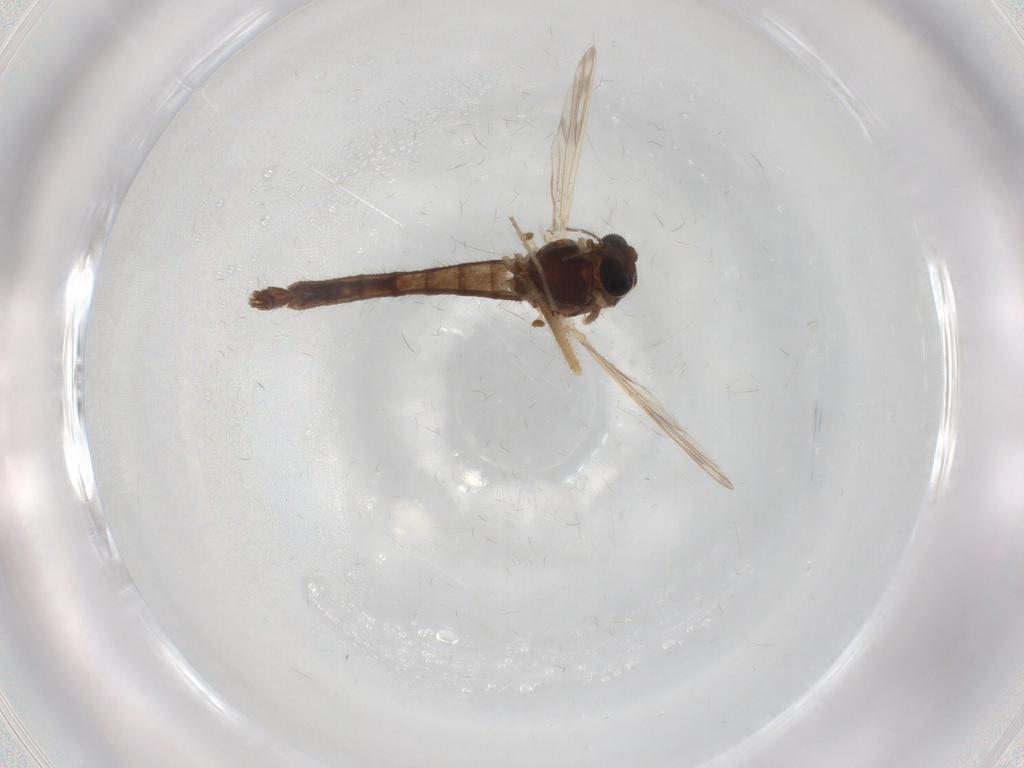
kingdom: Animalia
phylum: Arthropoda
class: Insecta
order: Diptera
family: Chironomidae
